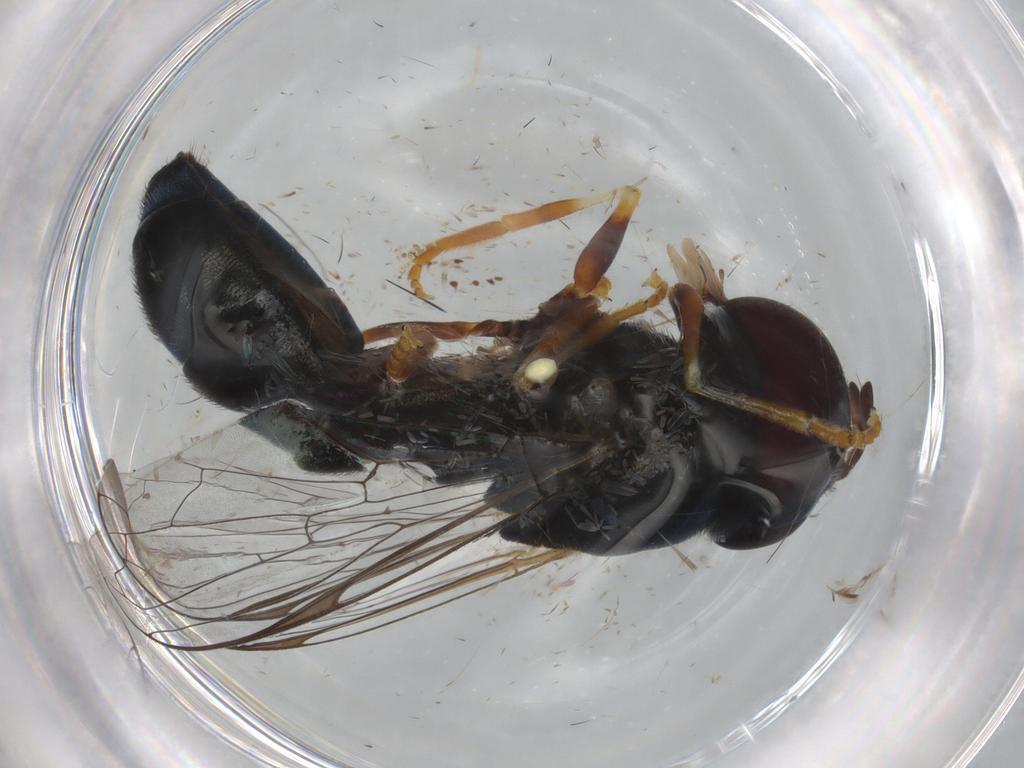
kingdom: Animalia
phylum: Arthropoda
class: Insecta
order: Diptera
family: Syrphidae
